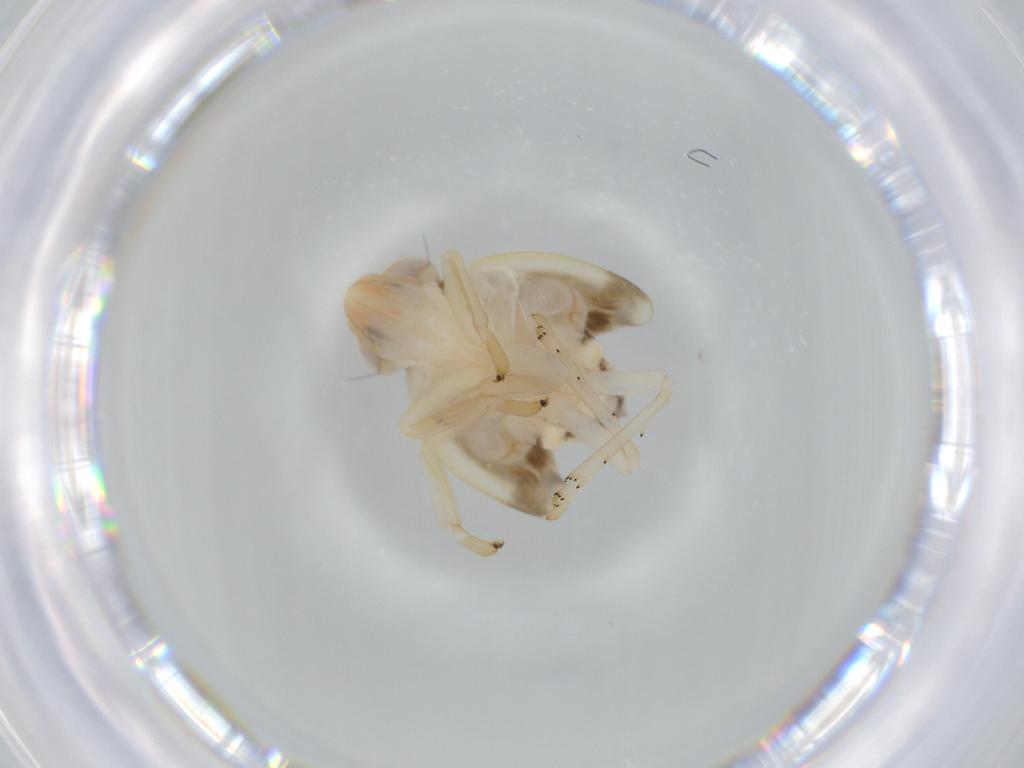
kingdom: Animalia
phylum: Arthropoda
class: Insecta
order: Hemiptera
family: Nogodinidae
